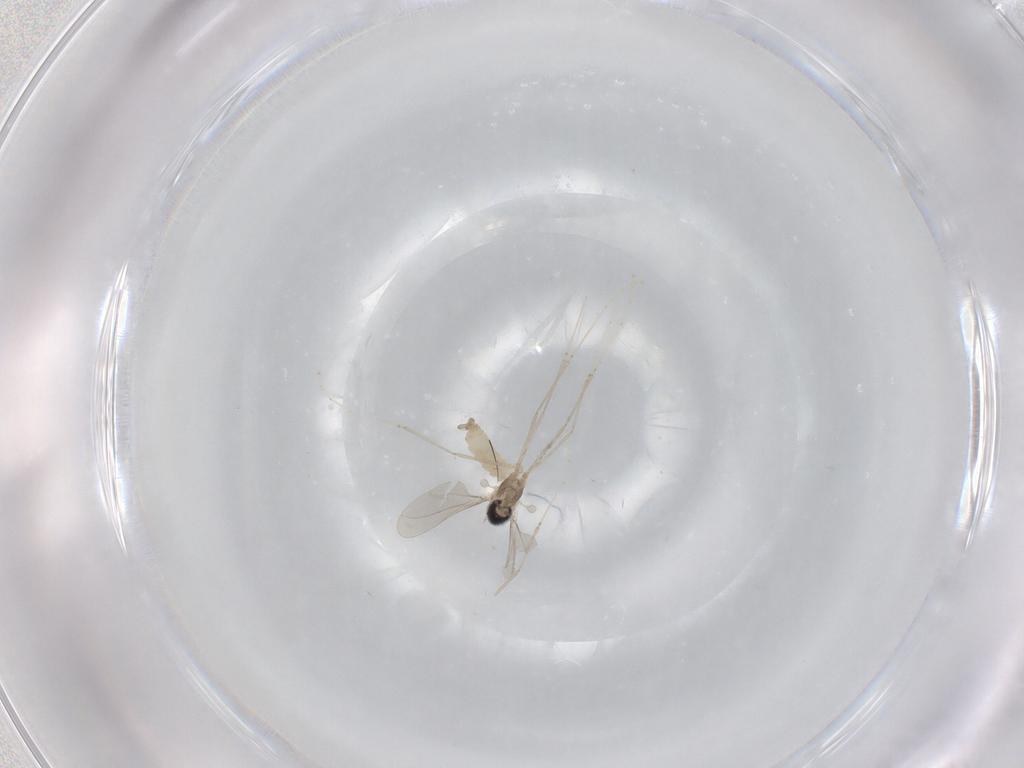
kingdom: Animalia
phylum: Arthropoda
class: Insecta
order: Diptera
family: Cecidomyiidae
